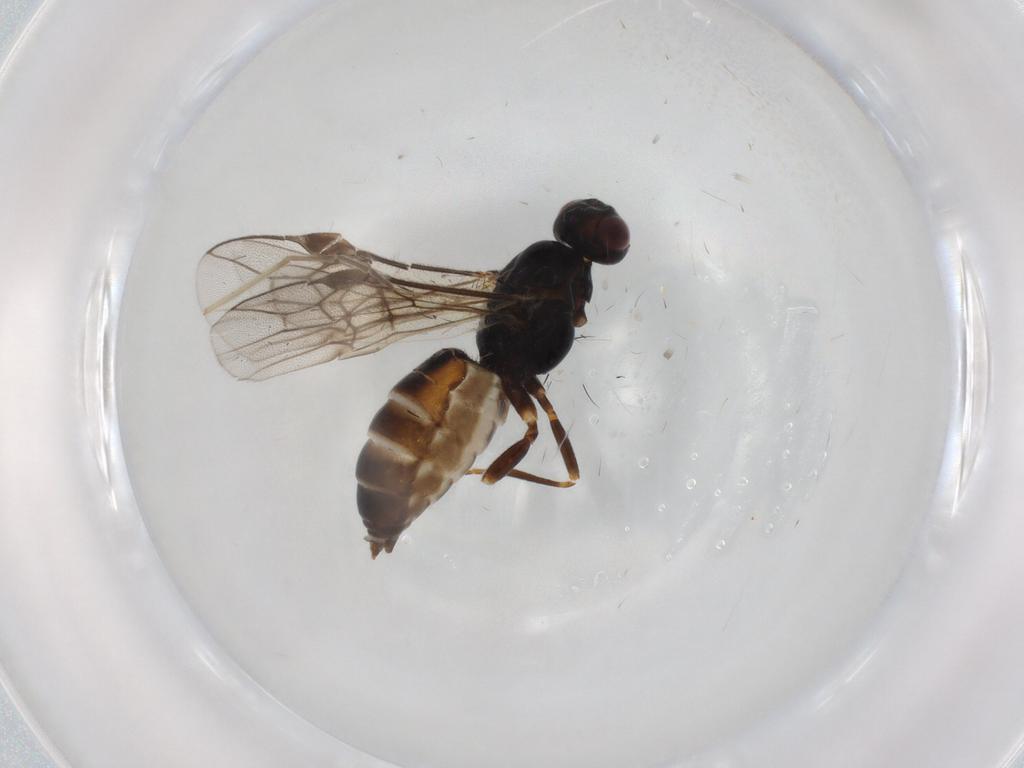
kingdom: Animalia
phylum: Arthropoda
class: Insecta
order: Hymenoptera
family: Braconidae
